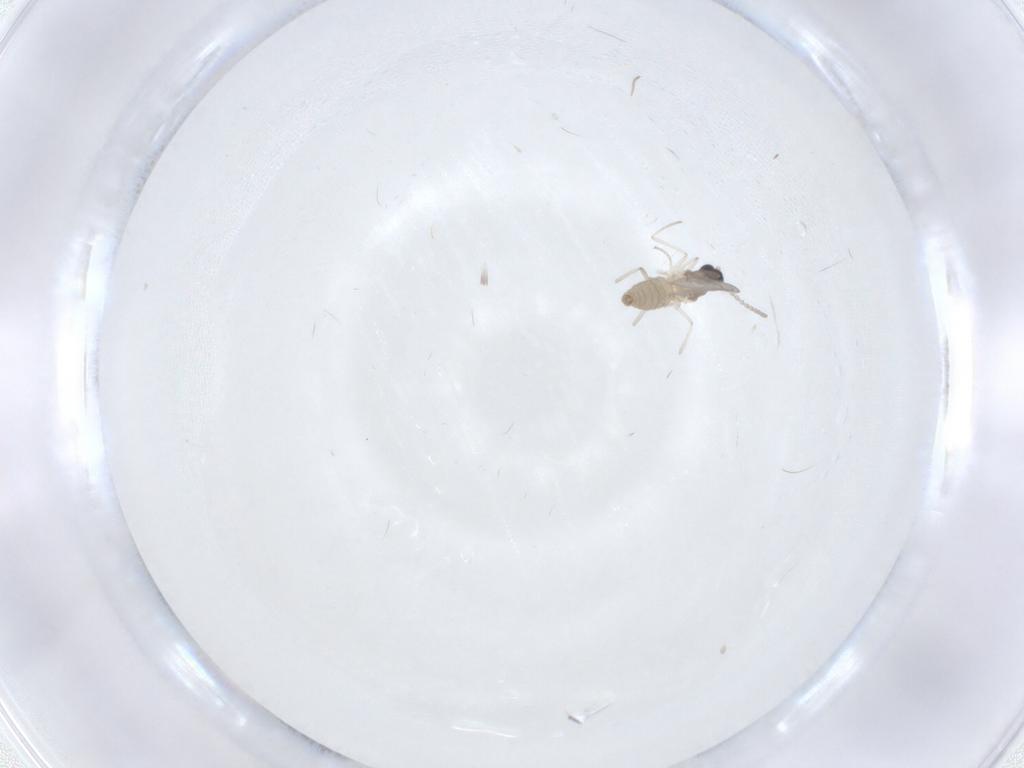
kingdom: Animalia
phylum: Arthropoda
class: Insecta
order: Diptera
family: Cecidomyiidae
